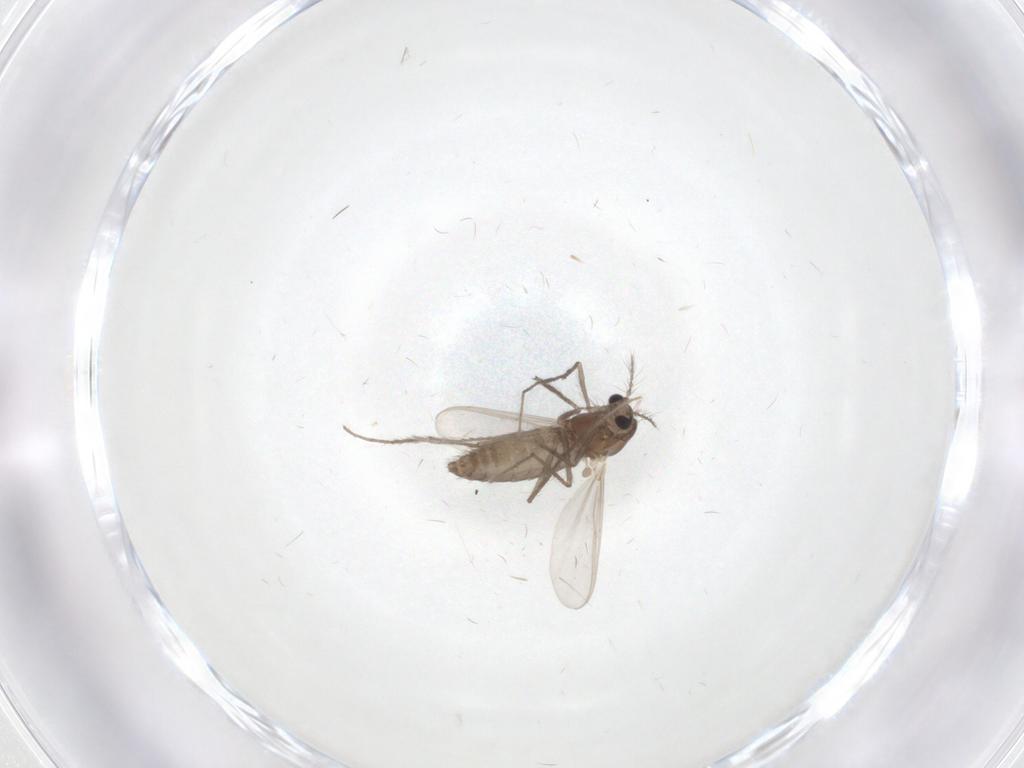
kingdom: Animalia
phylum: Arthropoda
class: Insecta
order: Diptera
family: Chironomidae
